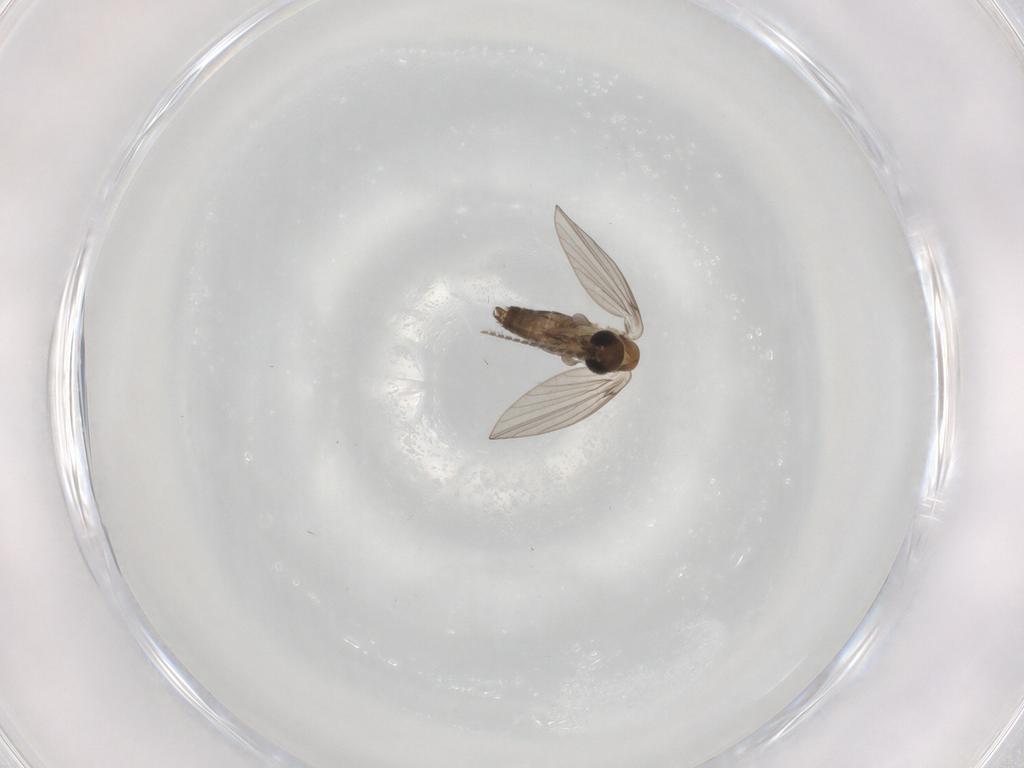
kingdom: Animalia
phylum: Arthropoda
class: Insecta
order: Diptera
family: Psychodidae
